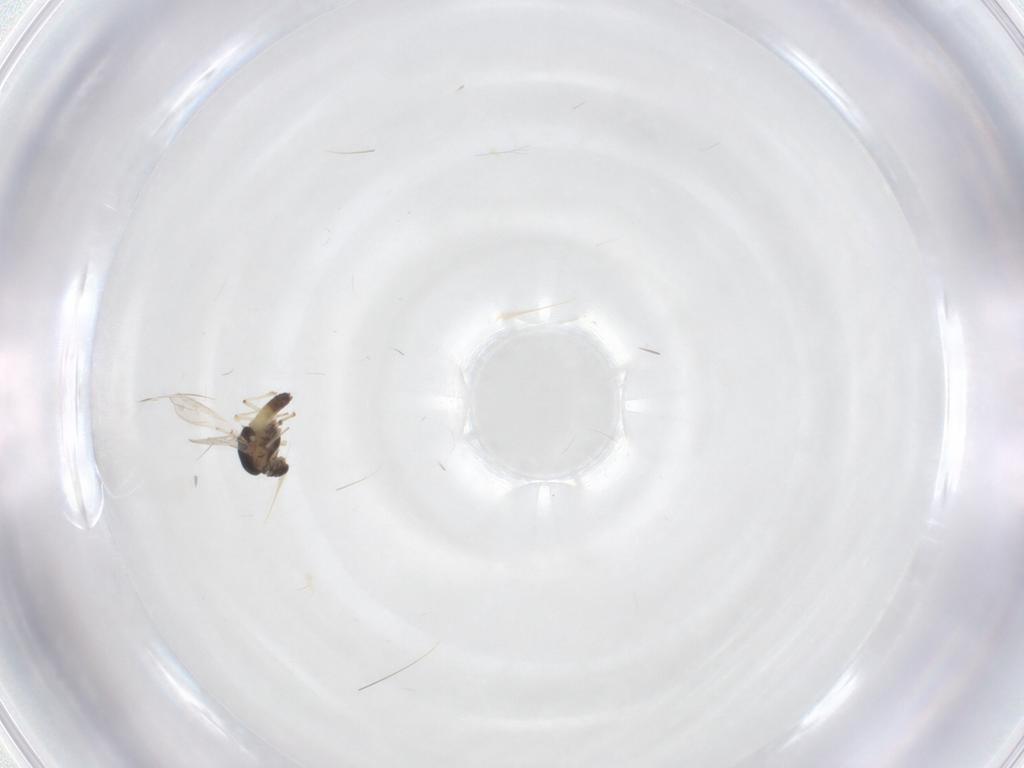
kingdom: Animalia
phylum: Arthropoda
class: Insecta
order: Diptera
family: Chironomidae
